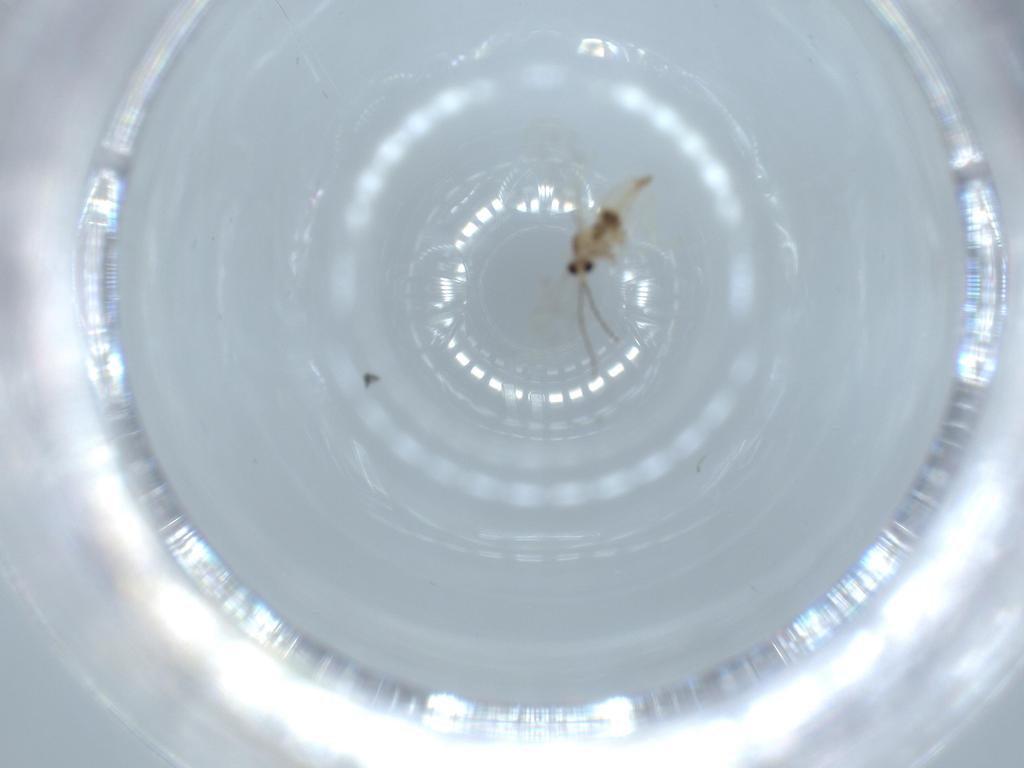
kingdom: Animalia
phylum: Arthropoda
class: Insecta
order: Diptera
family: Cecidomyiidae
